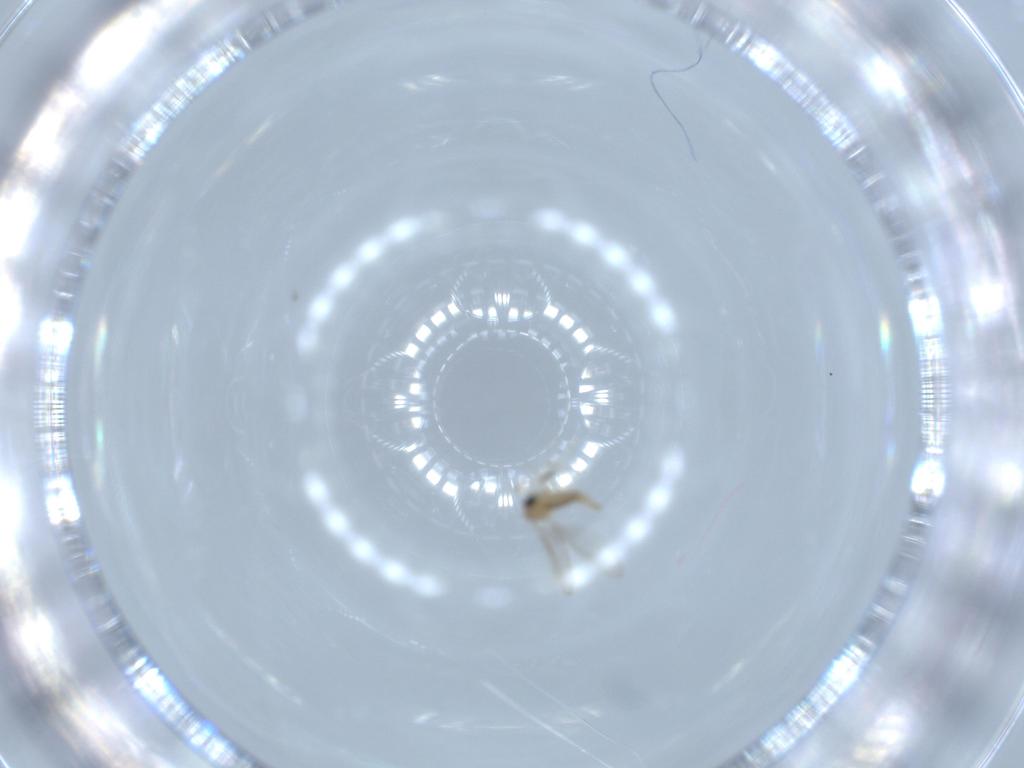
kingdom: Animalia
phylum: Arthropoda
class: Insecta
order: Diptera
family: Cecidomyiidae
